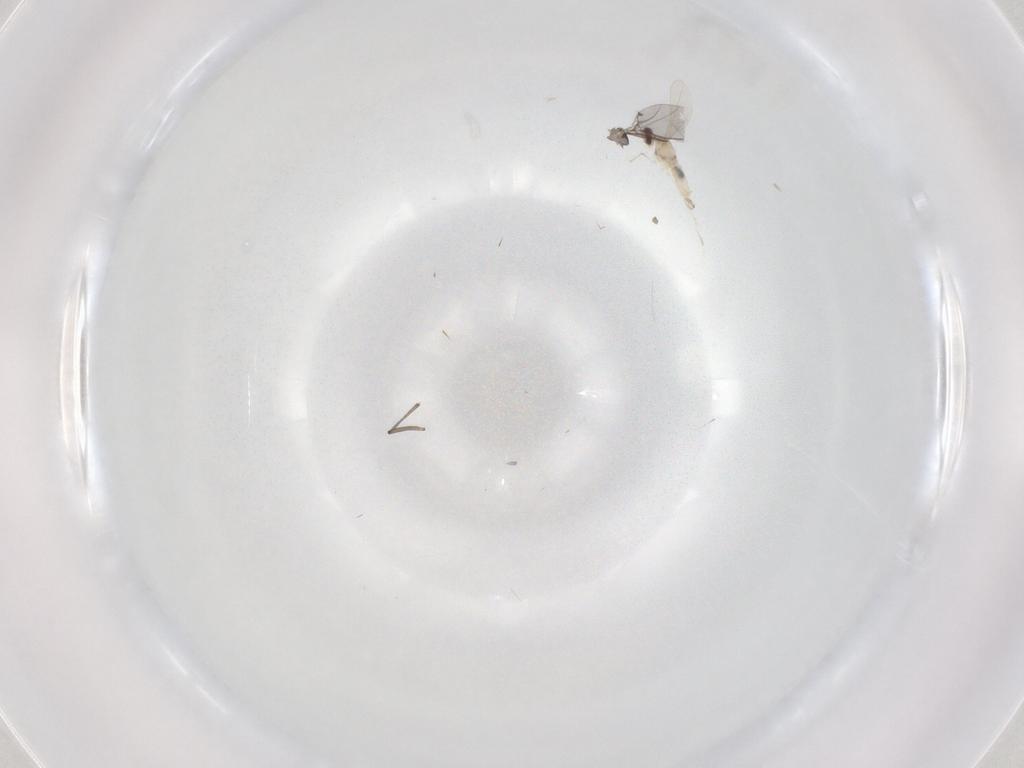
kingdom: Animalia
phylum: Arthropoda
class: Insecta
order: Diptera
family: Sciaridae
